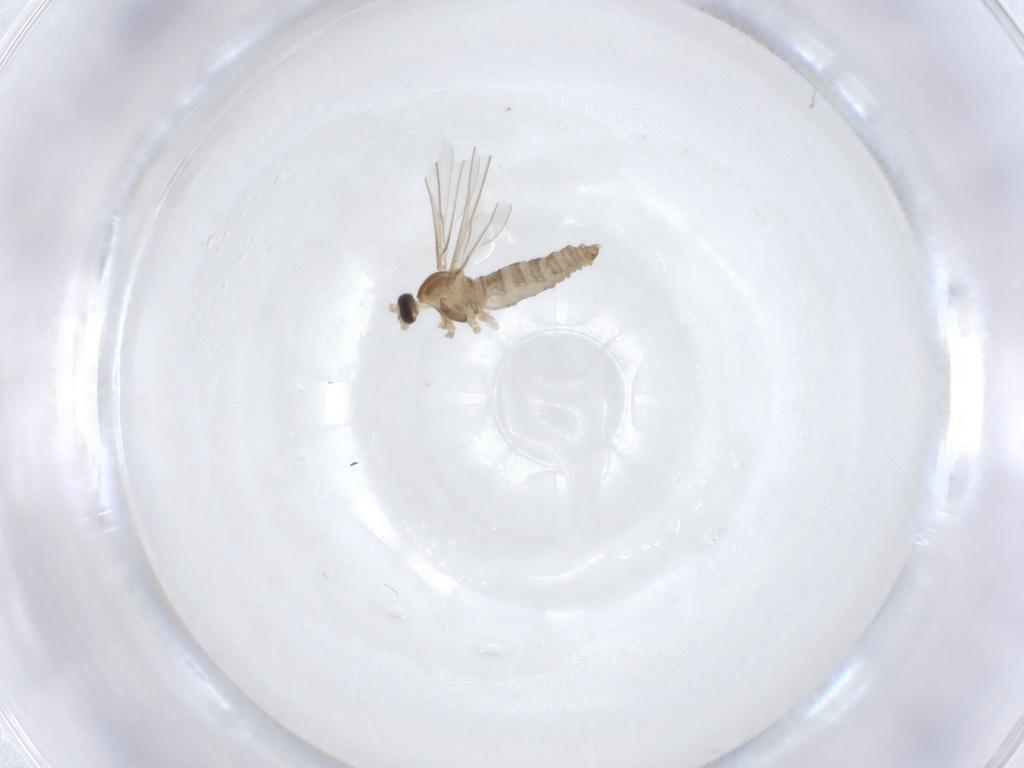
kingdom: Animalia
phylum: Arthropoda
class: Insecta
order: Diptera
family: Cecidomyiidae
